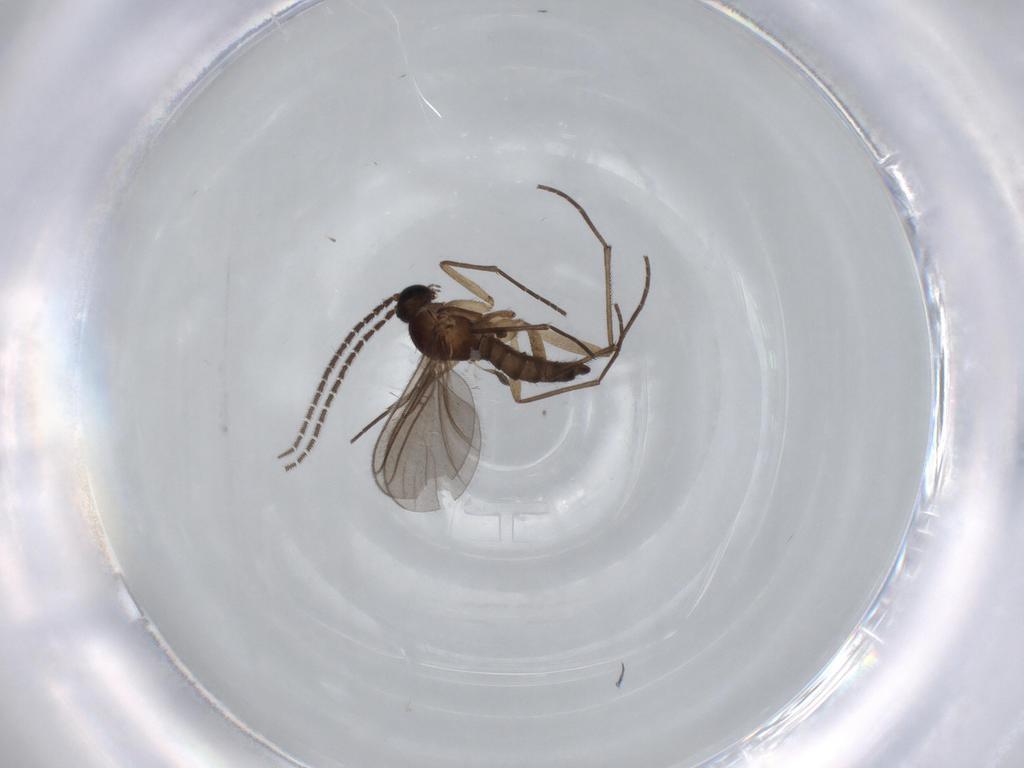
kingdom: Animalia
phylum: Arthropoda
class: Insecta
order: Diptera
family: Sciaridae
